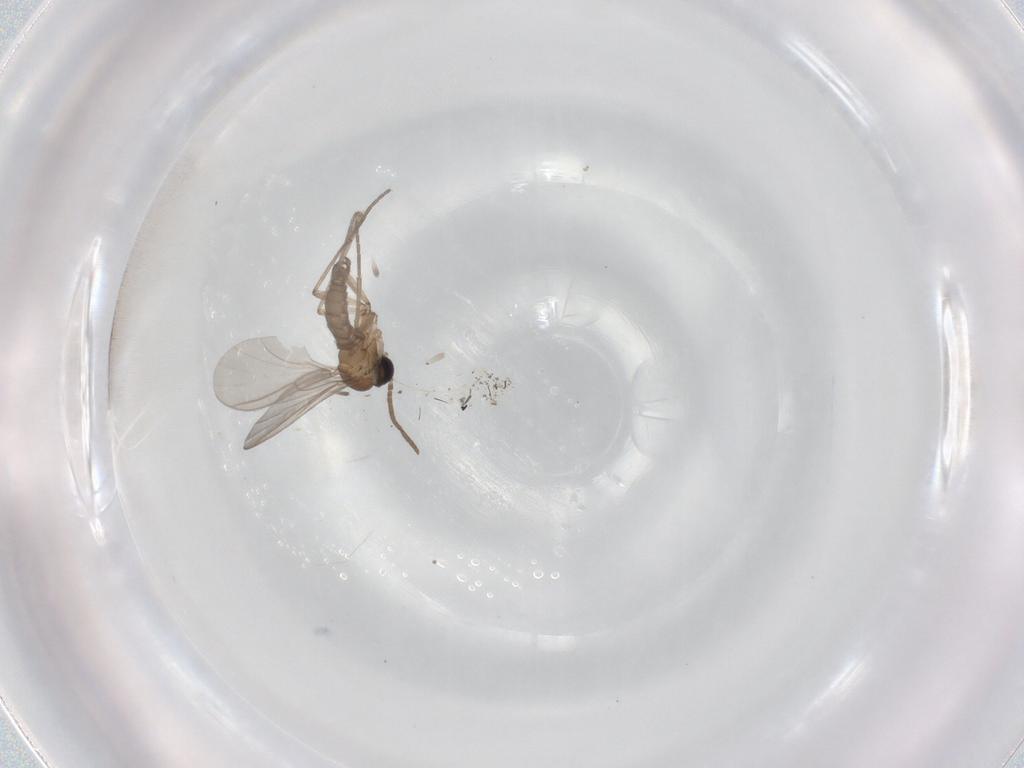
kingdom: Animalia
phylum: Arthropoda
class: Insecta
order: Diptera
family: Sciaridae
